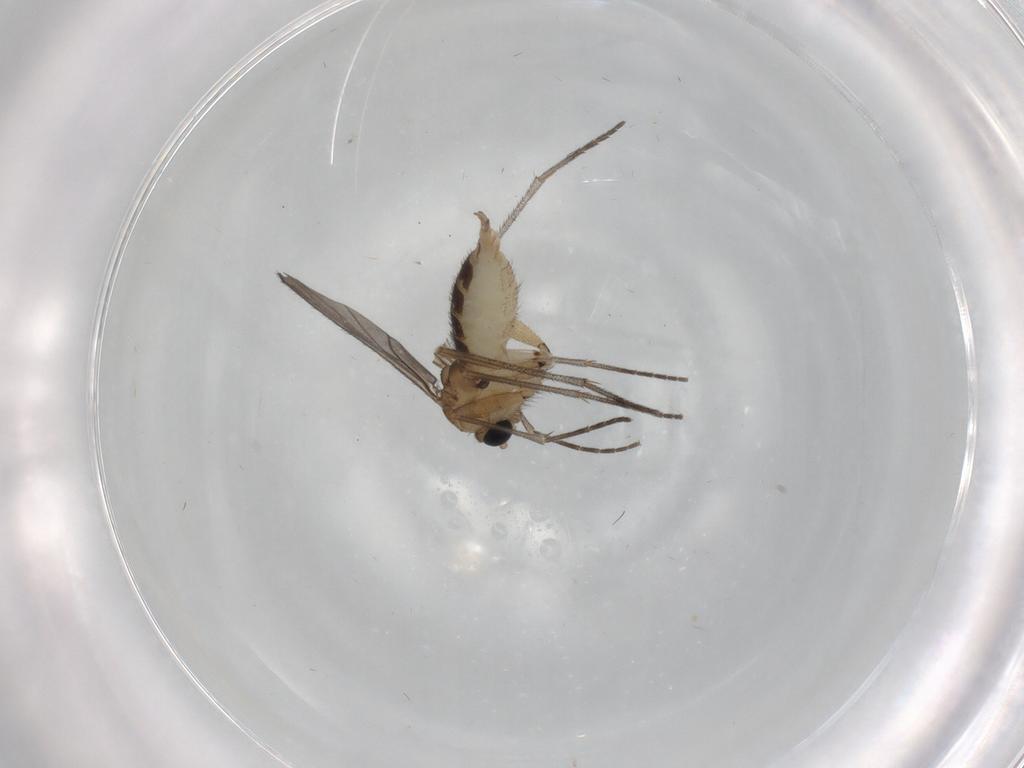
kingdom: Animalia
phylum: Arthropoda
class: Insecta
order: Diptera
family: Sciaridae
